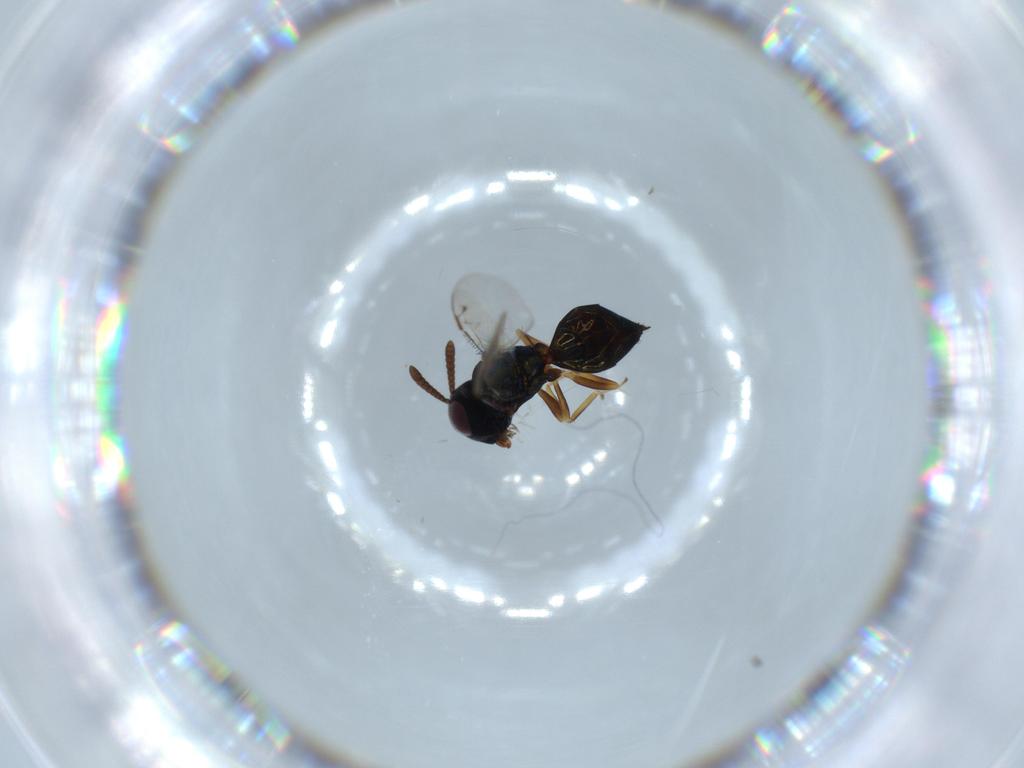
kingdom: Animalia
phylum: Arthropoda
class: Insecta
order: Hymenoptera
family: Pteromalidae
